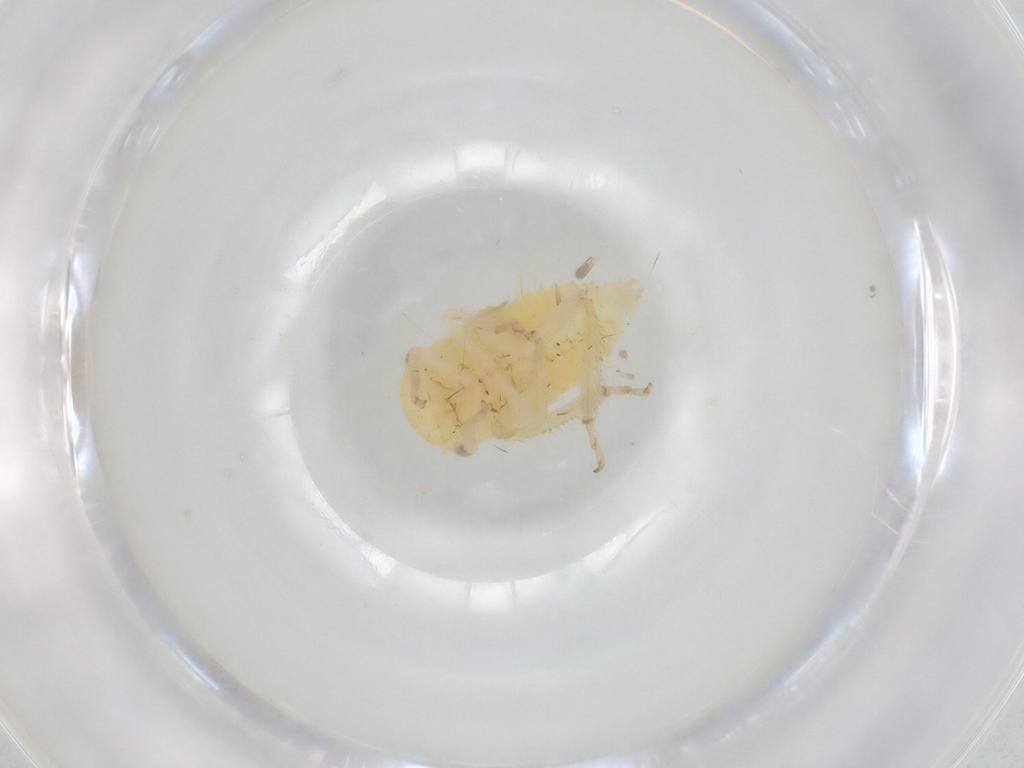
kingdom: Animalia
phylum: Arthropoda
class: Insecta
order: Hemiptera
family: Cicadellidae
